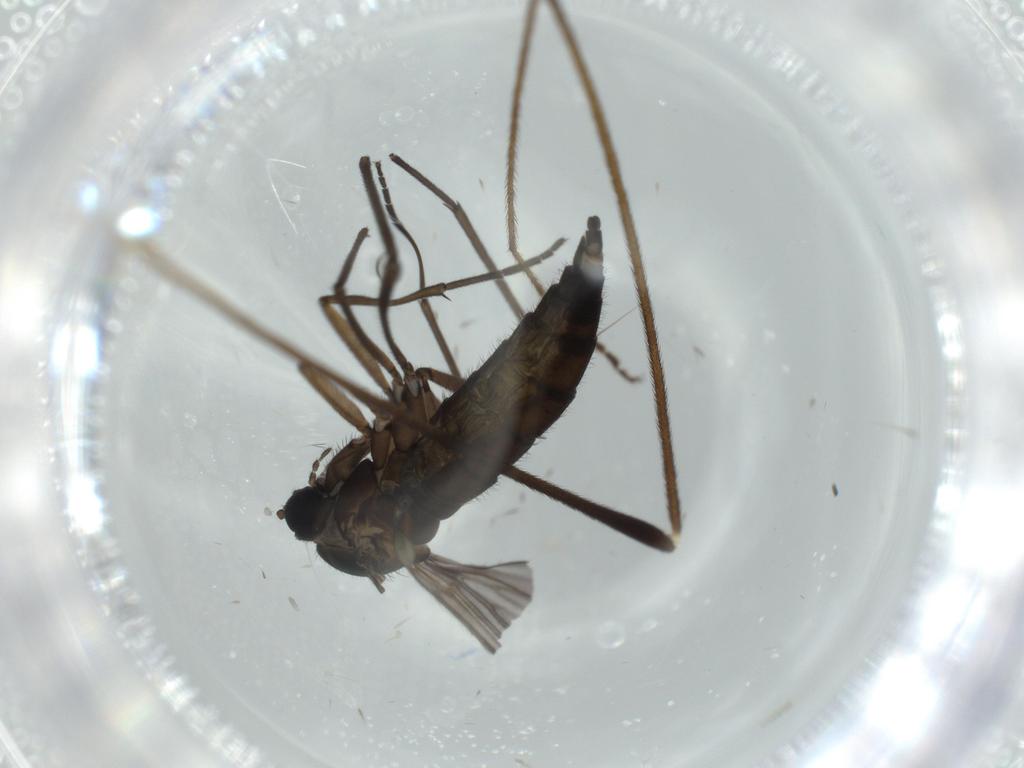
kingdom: Animalia
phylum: Arthropoda
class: Insecta
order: Diptera
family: Sciaridae
